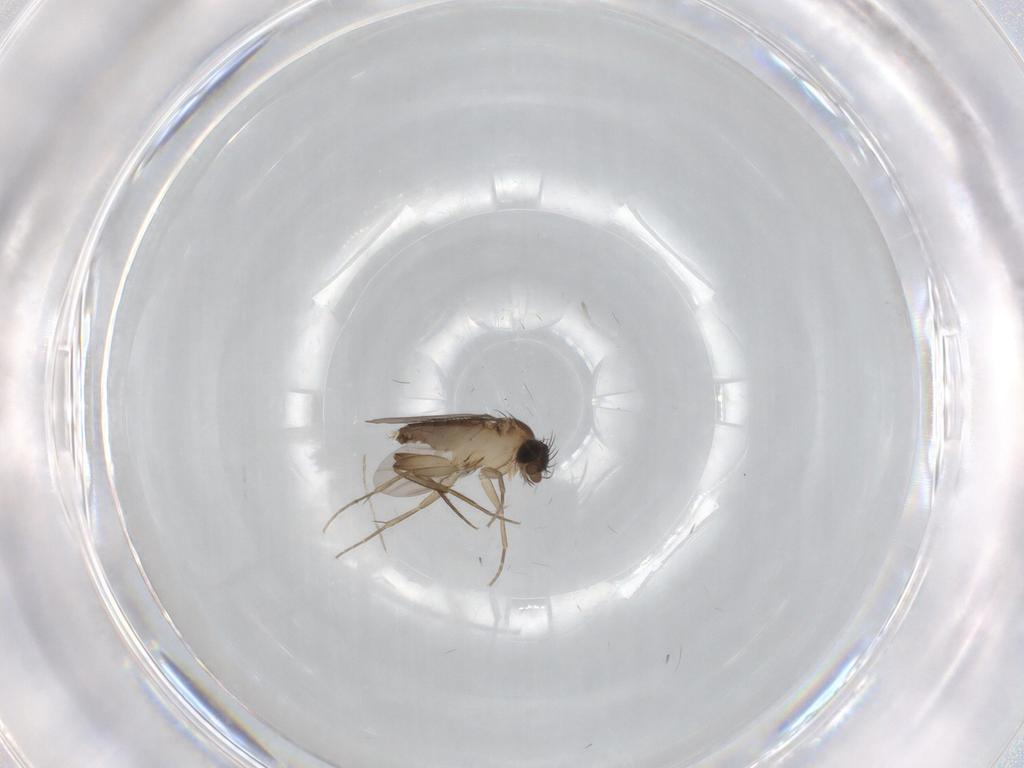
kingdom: Animalia
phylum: Arthropoda
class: Insecta
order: Diptera
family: Phoridae
